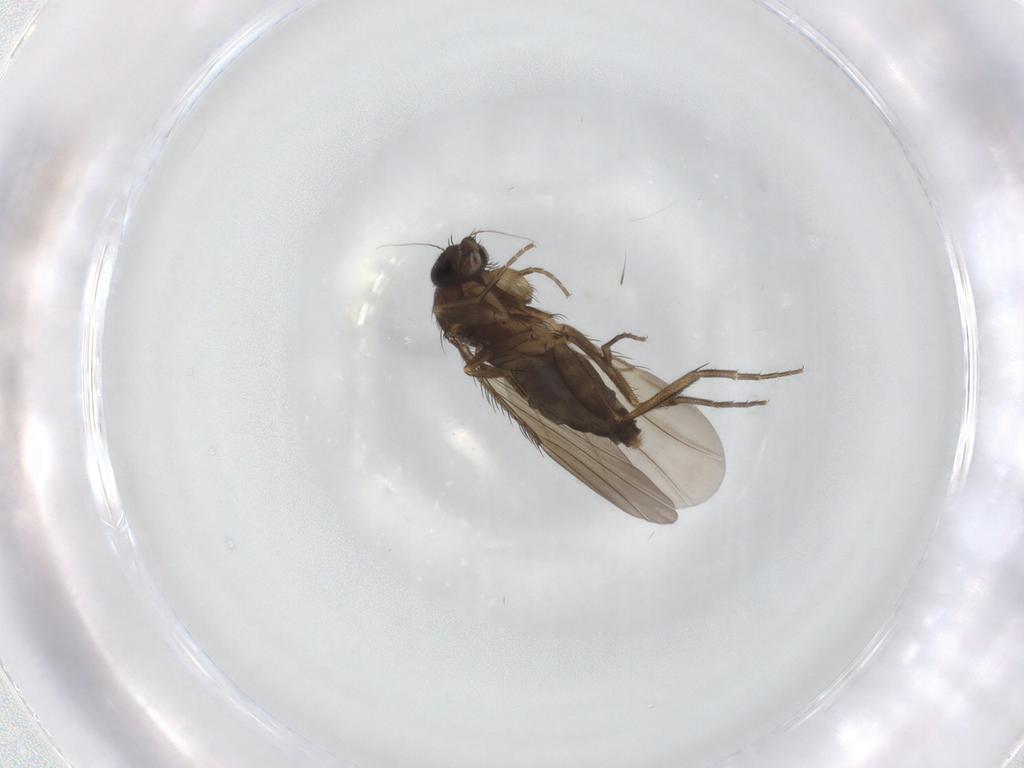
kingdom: Animalia
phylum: Arthropoda
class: Insecta
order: Diptera
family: Phoridae
